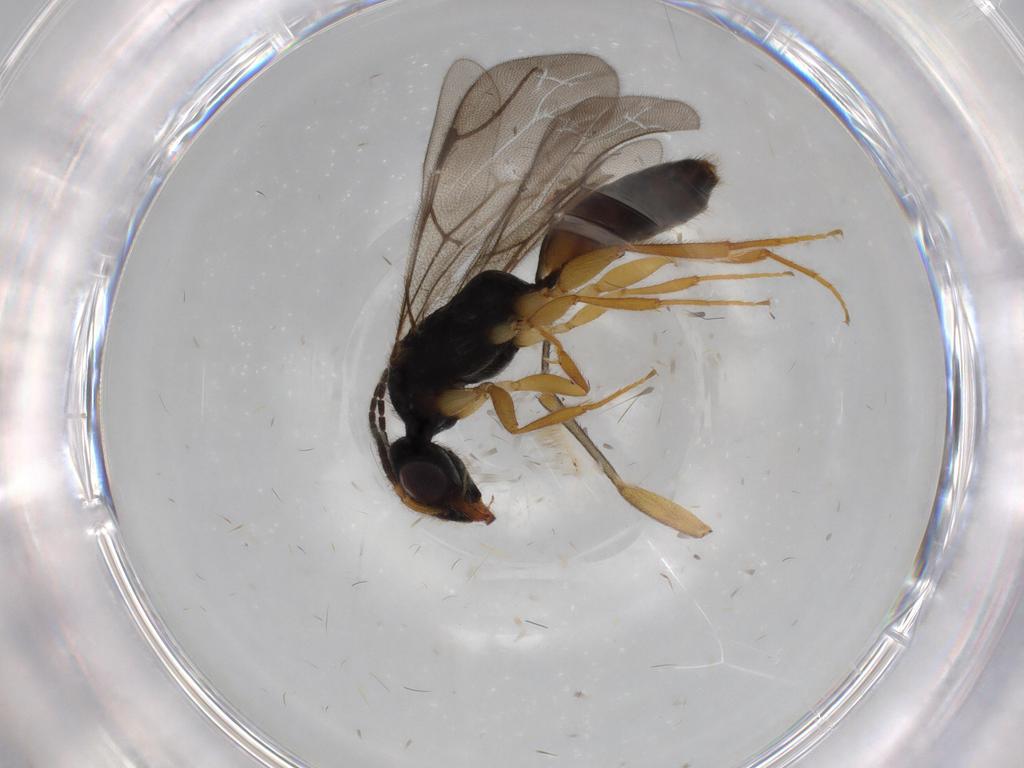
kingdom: Animalia
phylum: Arthropoda
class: Insecta
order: Hymenoptera
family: Bethylidae
